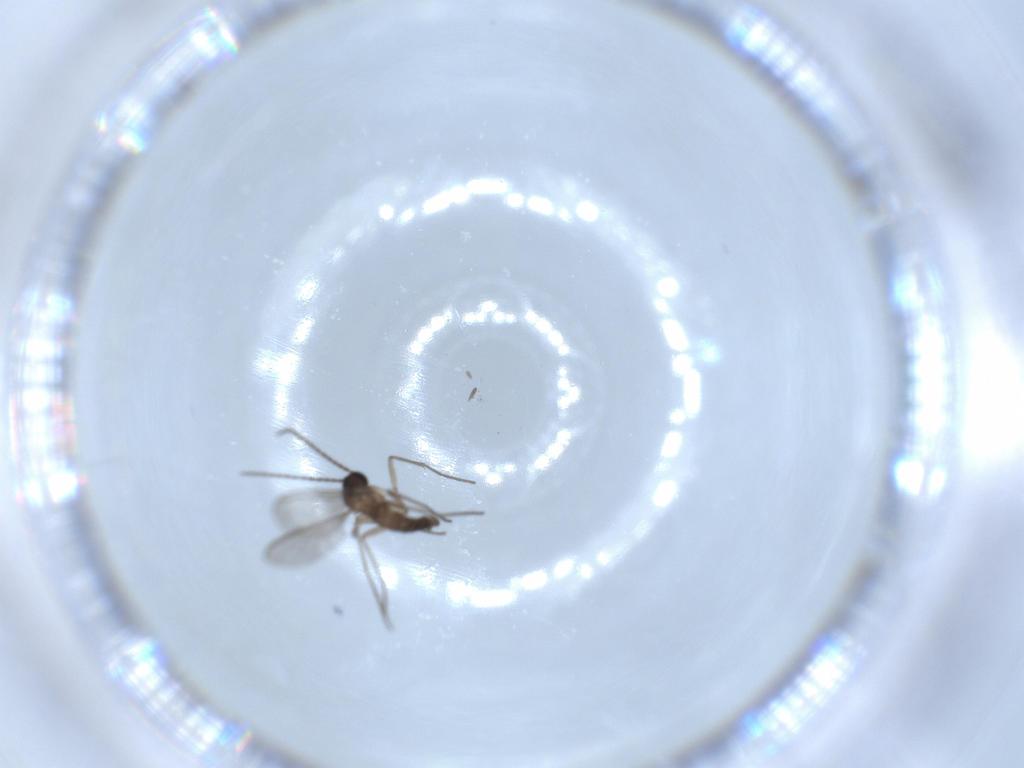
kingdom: Animalia
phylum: Arthropoda
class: Insecta
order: Diptera
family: Sciaridae
